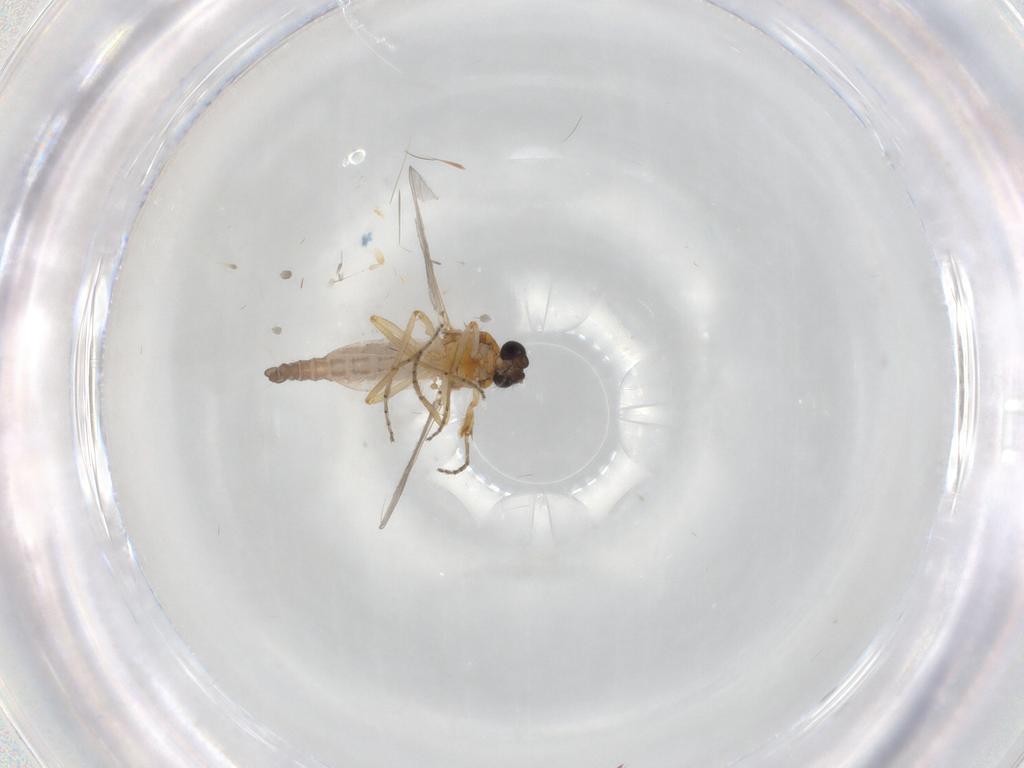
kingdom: Animalia
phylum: Arthropoda
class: Insecta
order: Diptera
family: Ceratopogonidae
